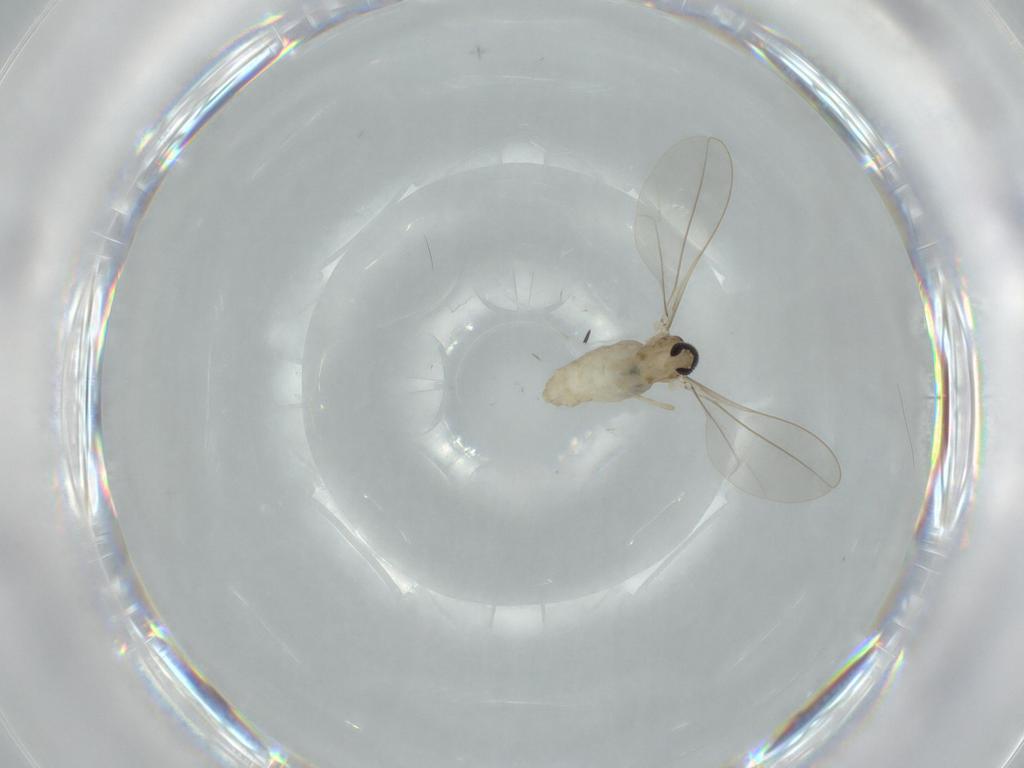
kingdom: Animalia
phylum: Arthropoda
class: Insecta
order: Diptera
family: Cecidomyiidae
